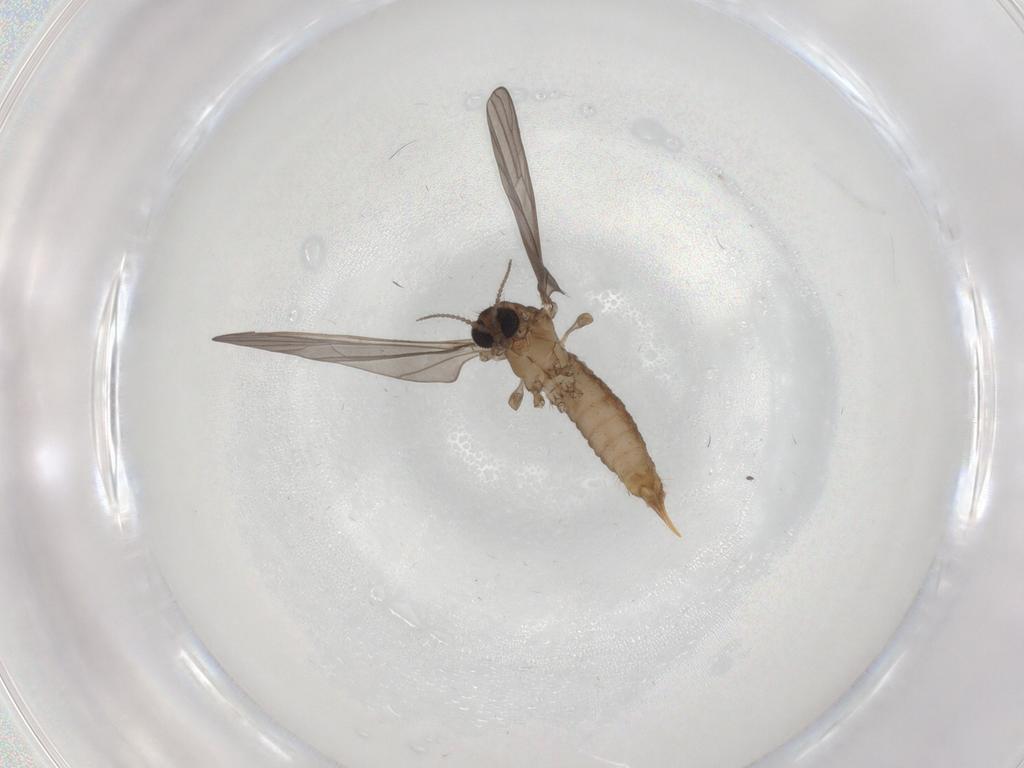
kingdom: Animalia
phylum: Arthropoda
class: Insecta
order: Diptera
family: Limoniidae
